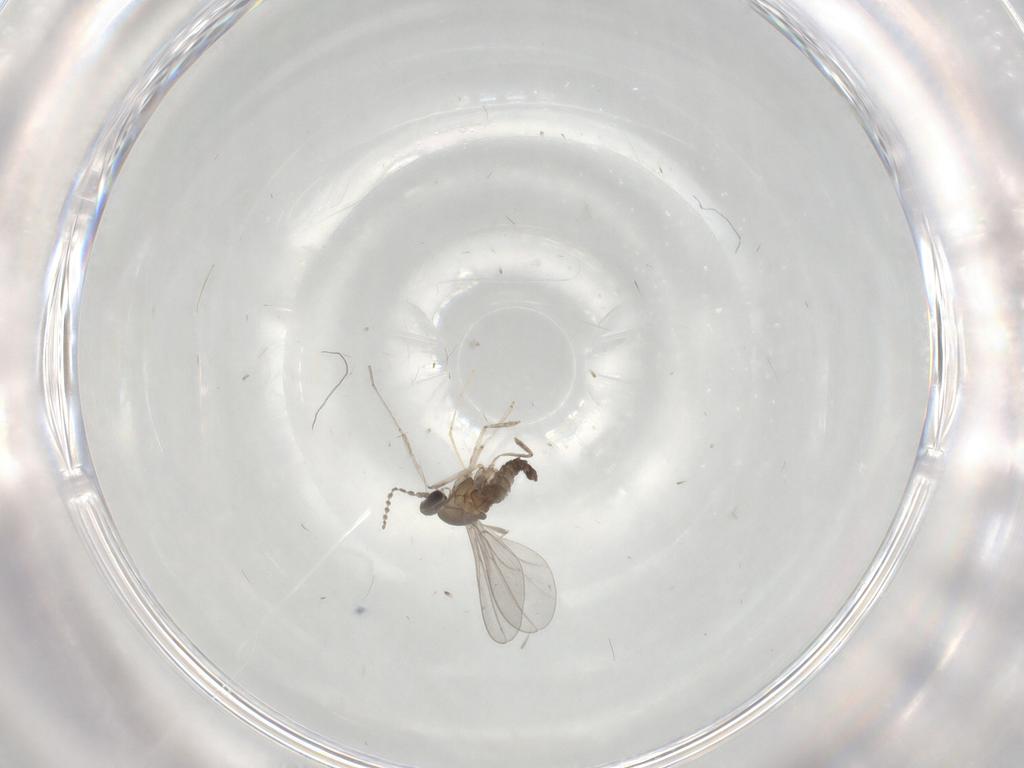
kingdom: Animalia
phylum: Arthropoda
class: Insecta
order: Diptera
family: Cecidomyiidae
